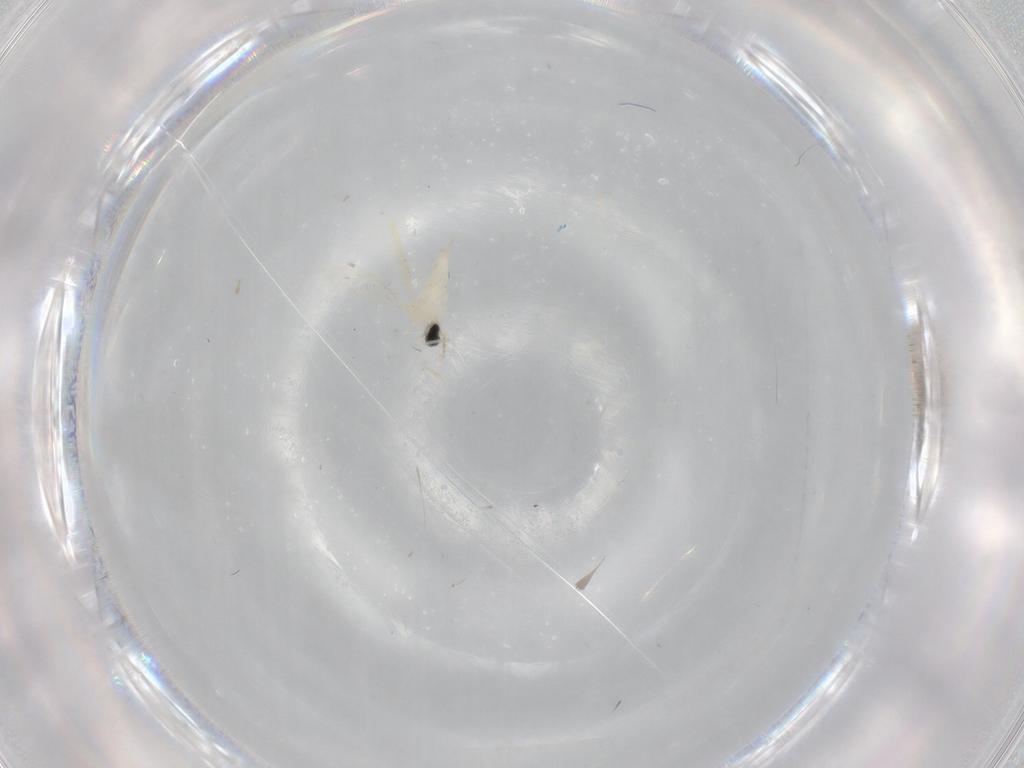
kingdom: Animalia
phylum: Arthropoda
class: Insecta
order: Diptera
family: Cecidomyiidae
